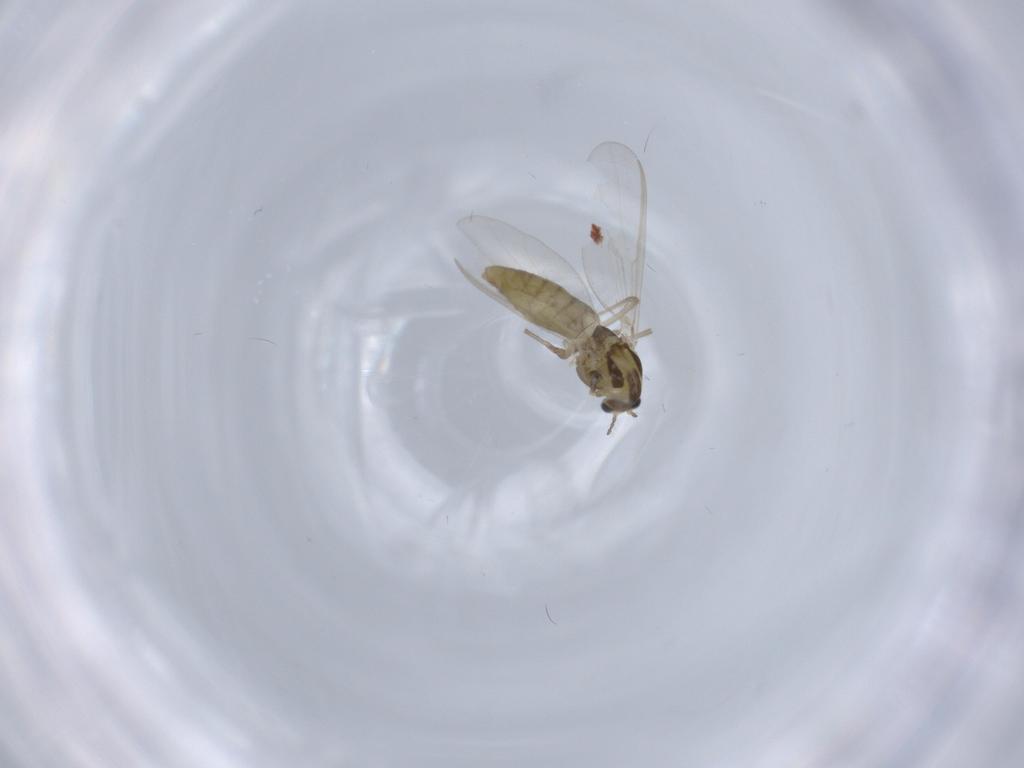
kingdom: Animalia
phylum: Arthropoda
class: Insecta
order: Diptera
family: Chironomidae
